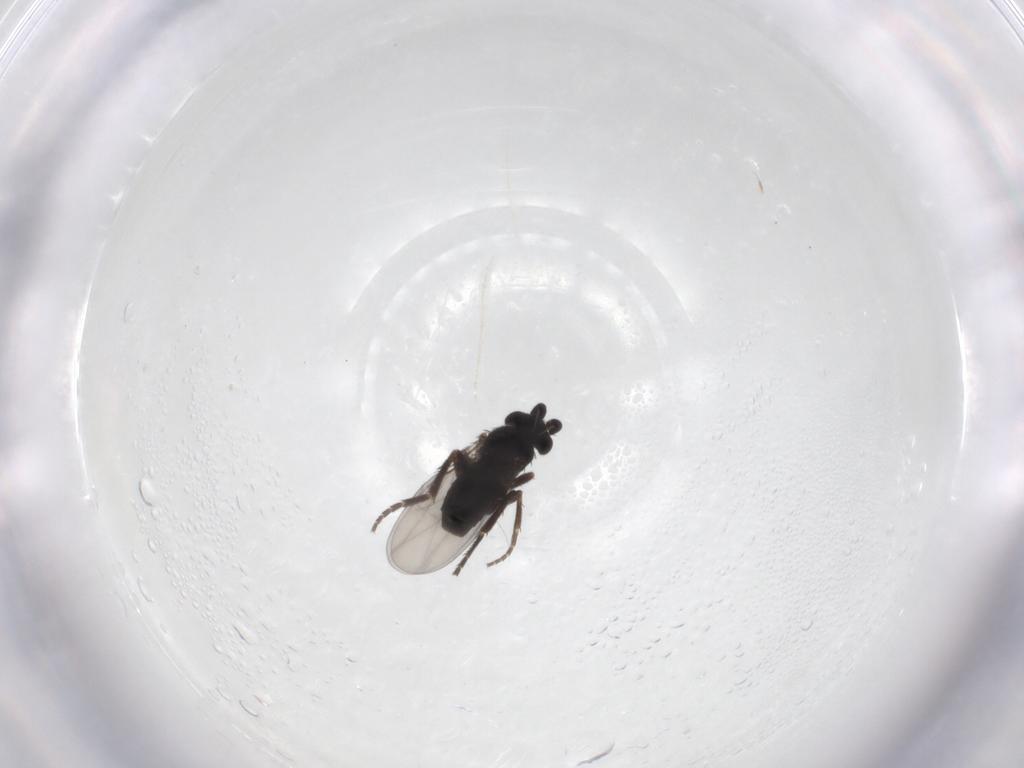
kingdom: Animalia
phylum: Arthropoda
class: Insecta
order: Diptera
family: Phoridae
